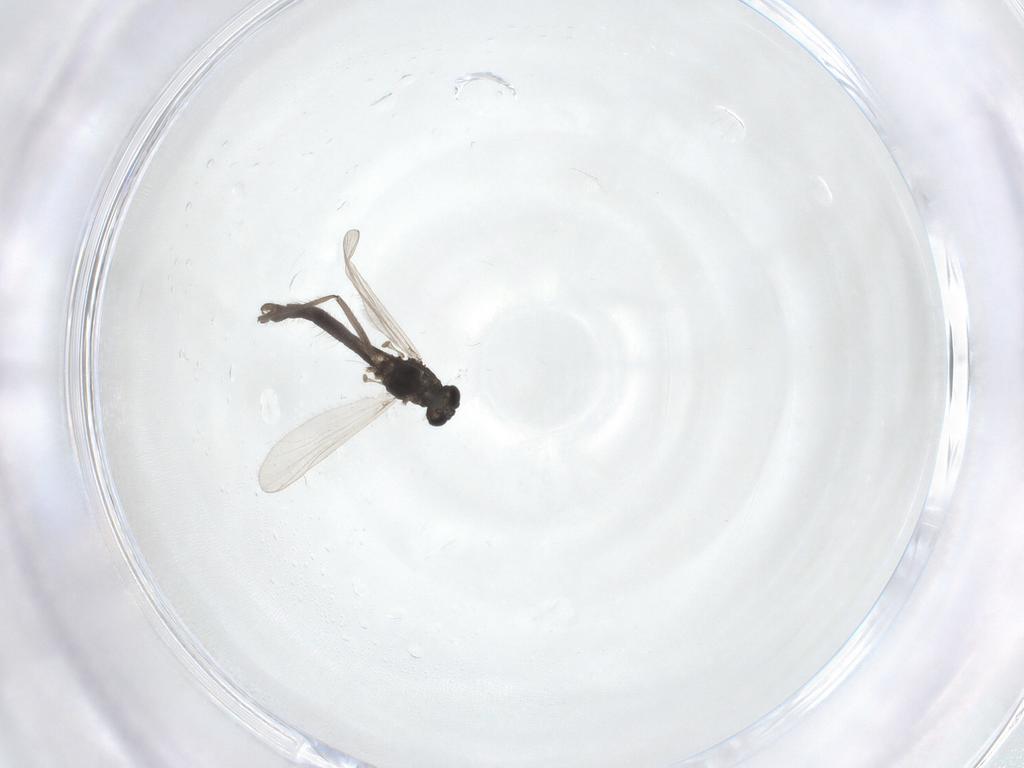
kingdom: Animalia
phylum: Arthropoda
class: Insecta
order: Diptera
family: Chironomidae
